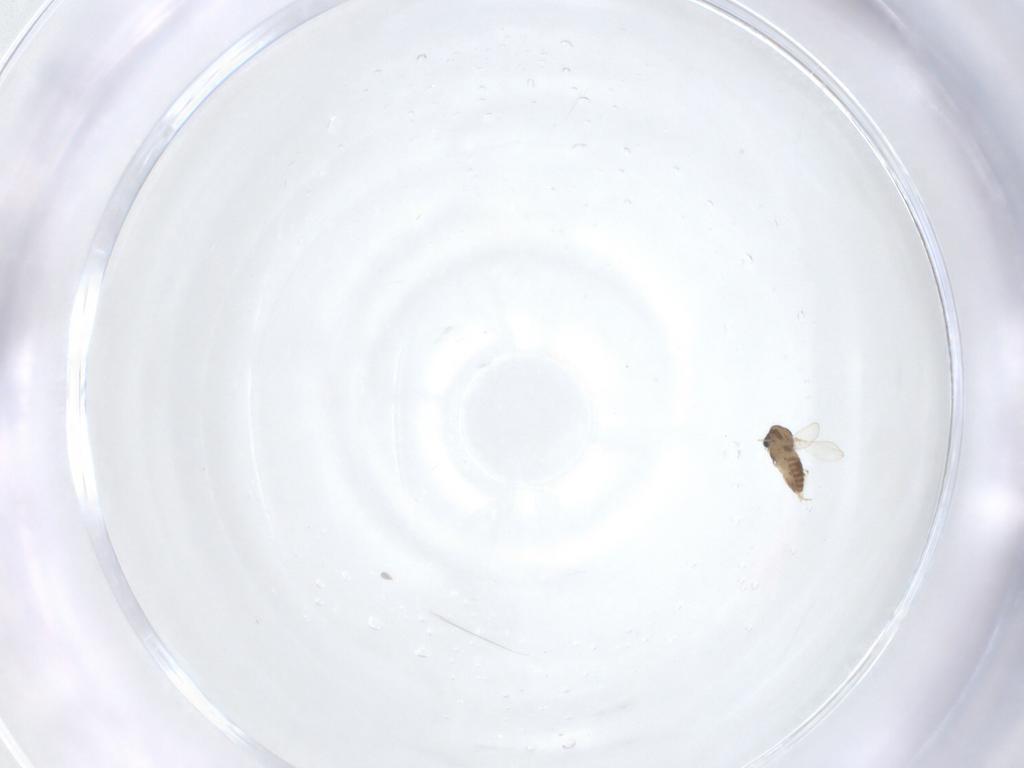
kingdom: Animalia
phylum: Arthropoda
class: Insecta
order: Diptera
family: Chironomidae
